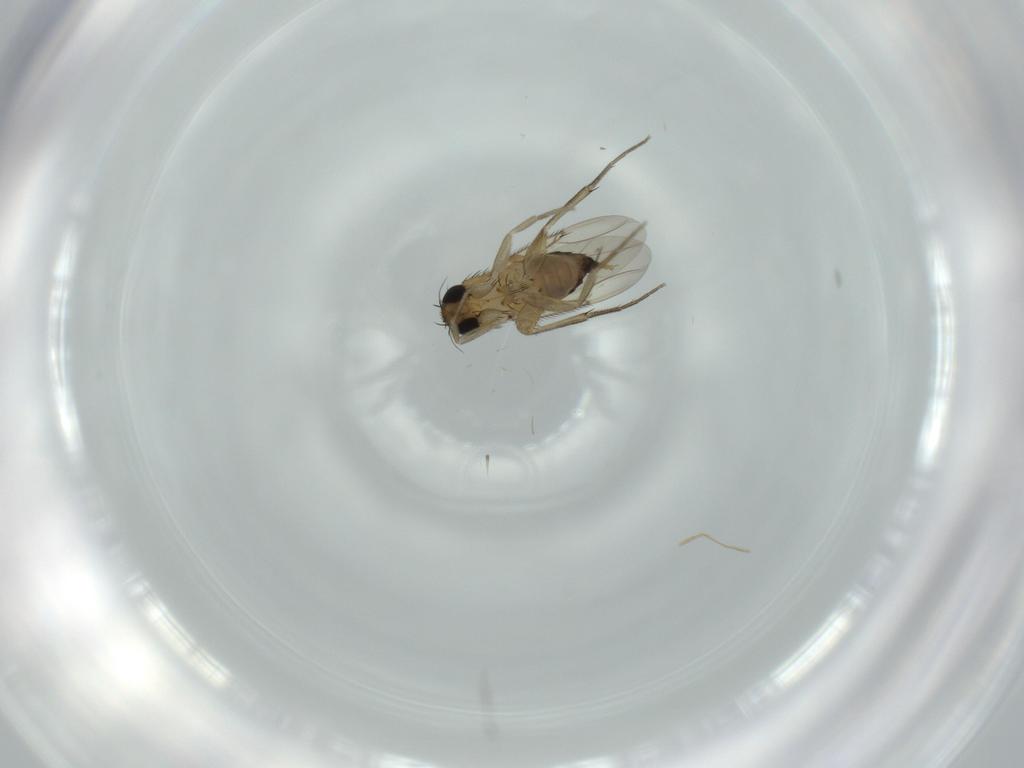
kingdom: Animalia
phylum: Arthropoda
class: Insecta
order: Diptera
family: Phoridae
